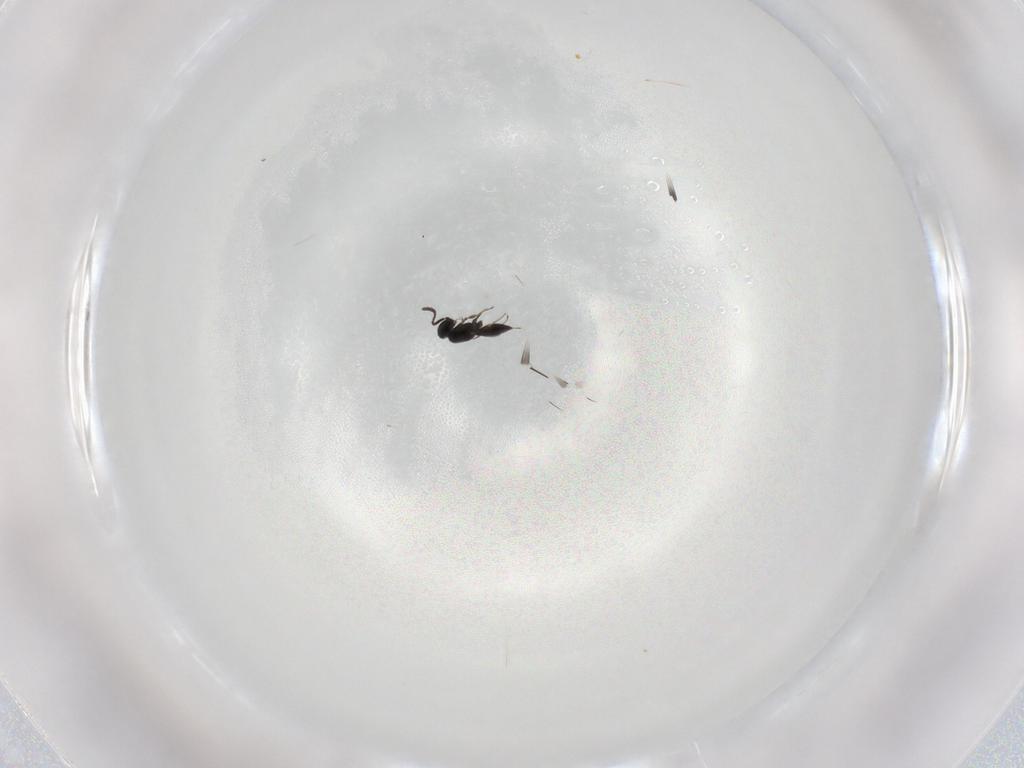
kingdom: Animalia
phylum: Arthropoda
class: Insecta
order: Hymenoptera
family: Scelionidae
